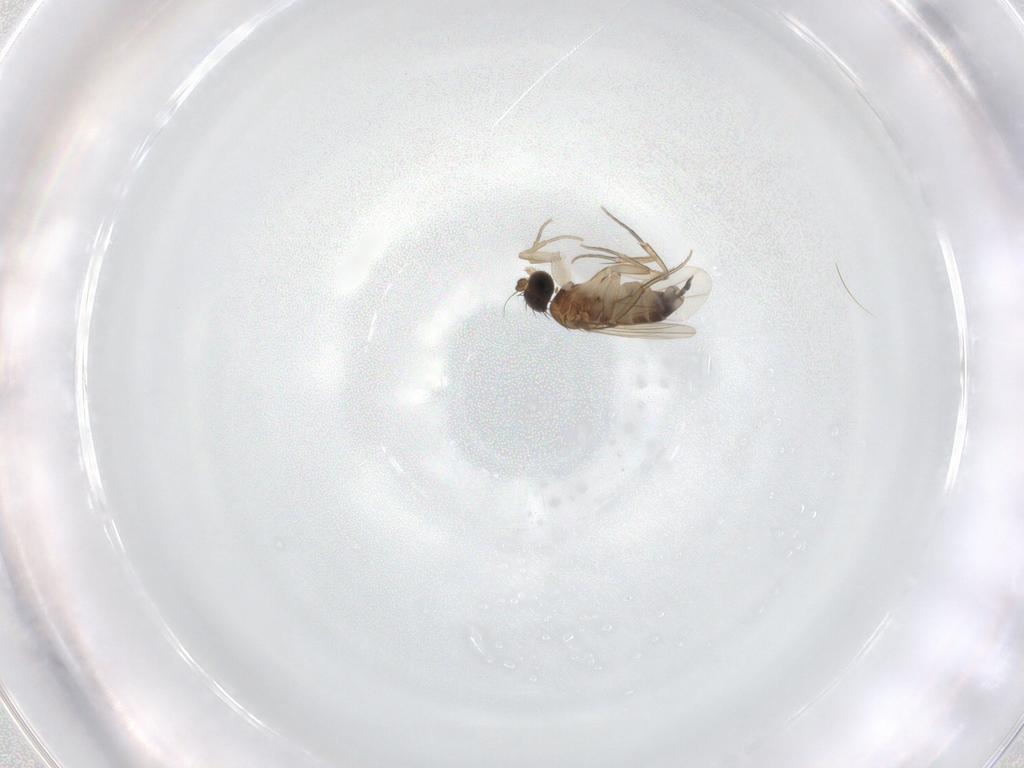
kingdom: Animalia
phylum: Arthropoda
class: Insecta
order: Diptera
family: Phoridae
